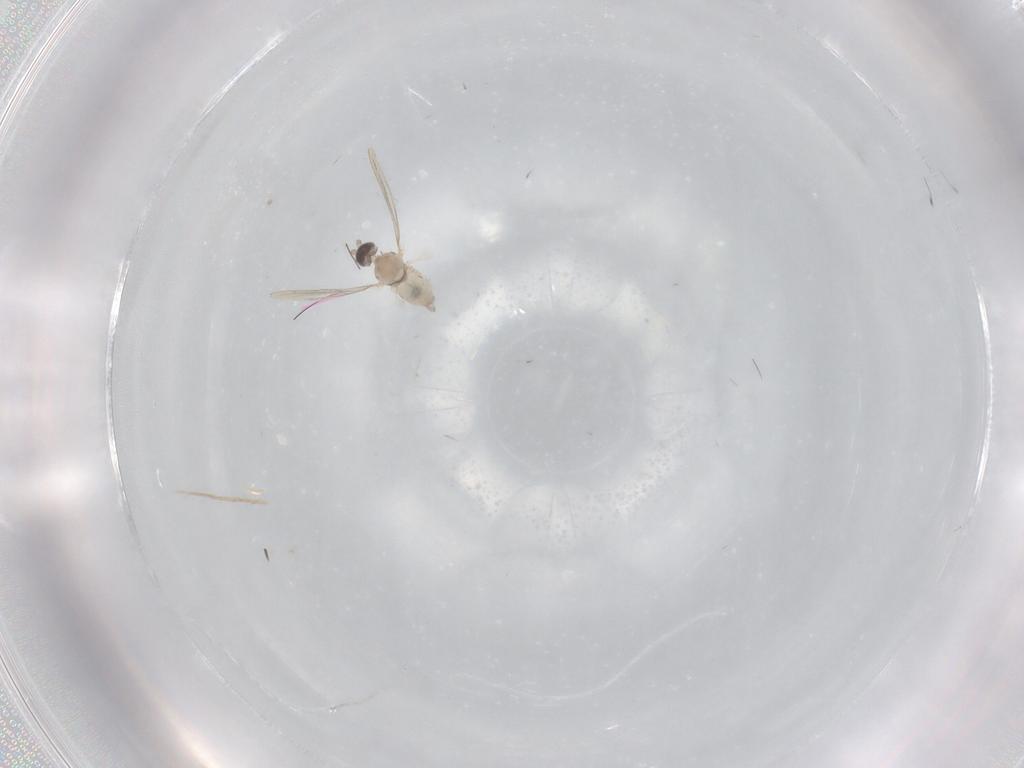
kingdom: Animalia
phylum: Arthropoda
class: Insecta
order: Diptera
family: Cecidomyiidae
